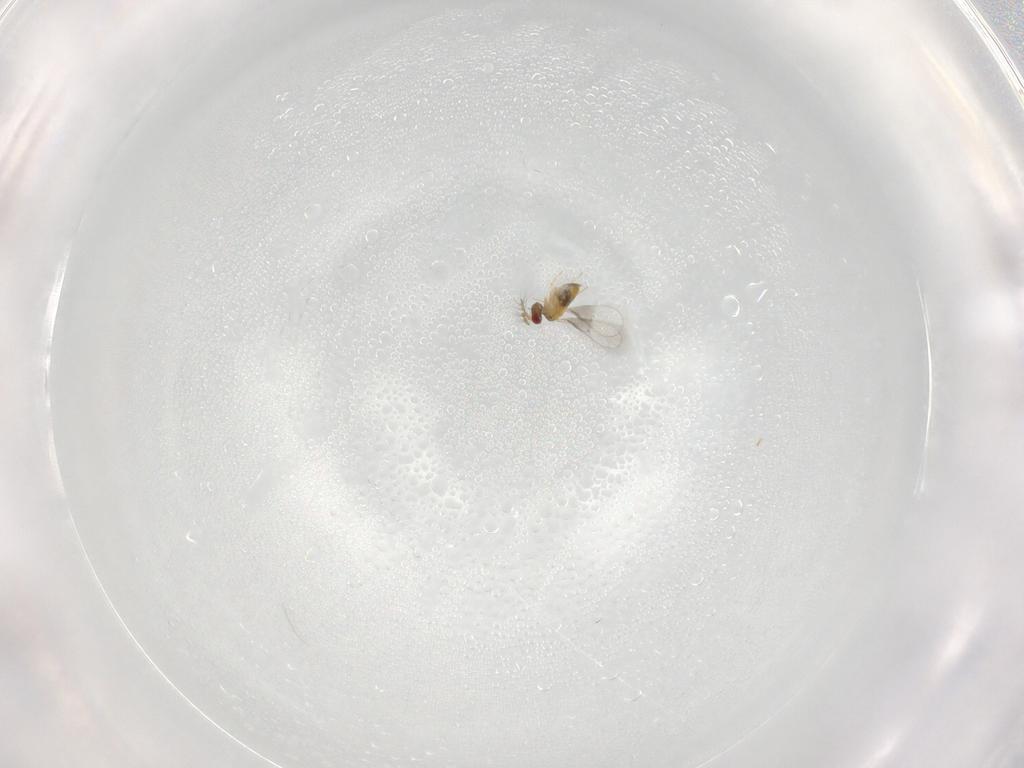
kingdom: Animalia
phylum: Arthropoda
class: Insecta
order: Hymenoptera
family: Trichogrammatidae
